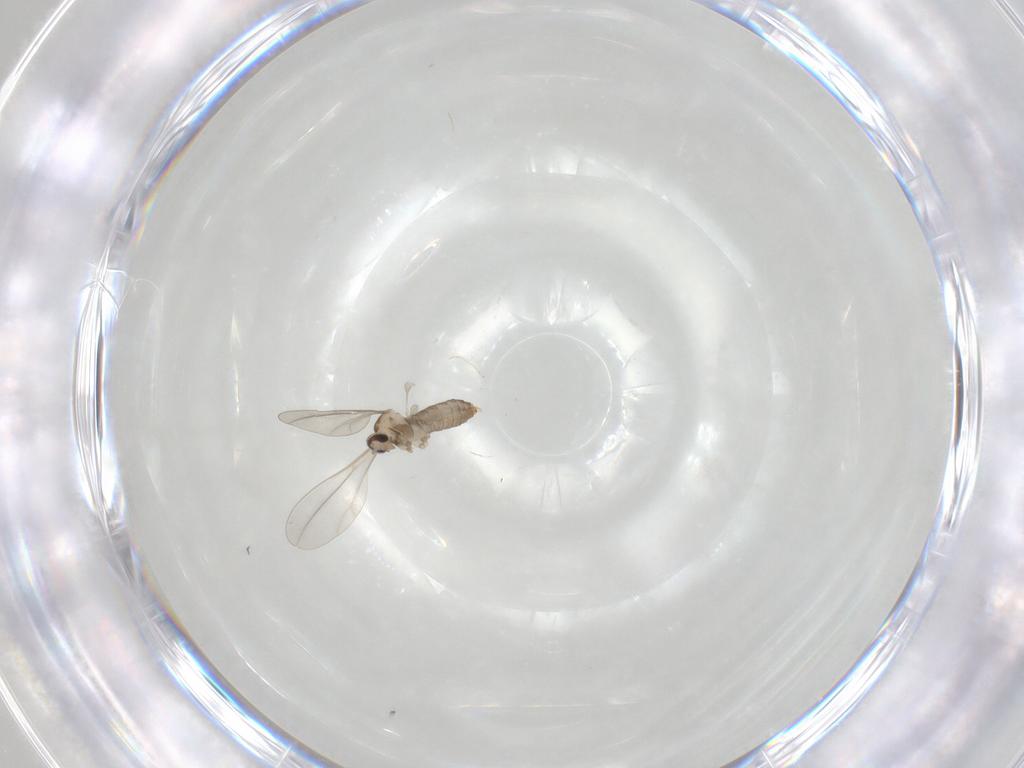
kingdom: Animalia
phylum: Arthropoda
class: Insecta
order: Diptera
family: Cecidomyiidae
